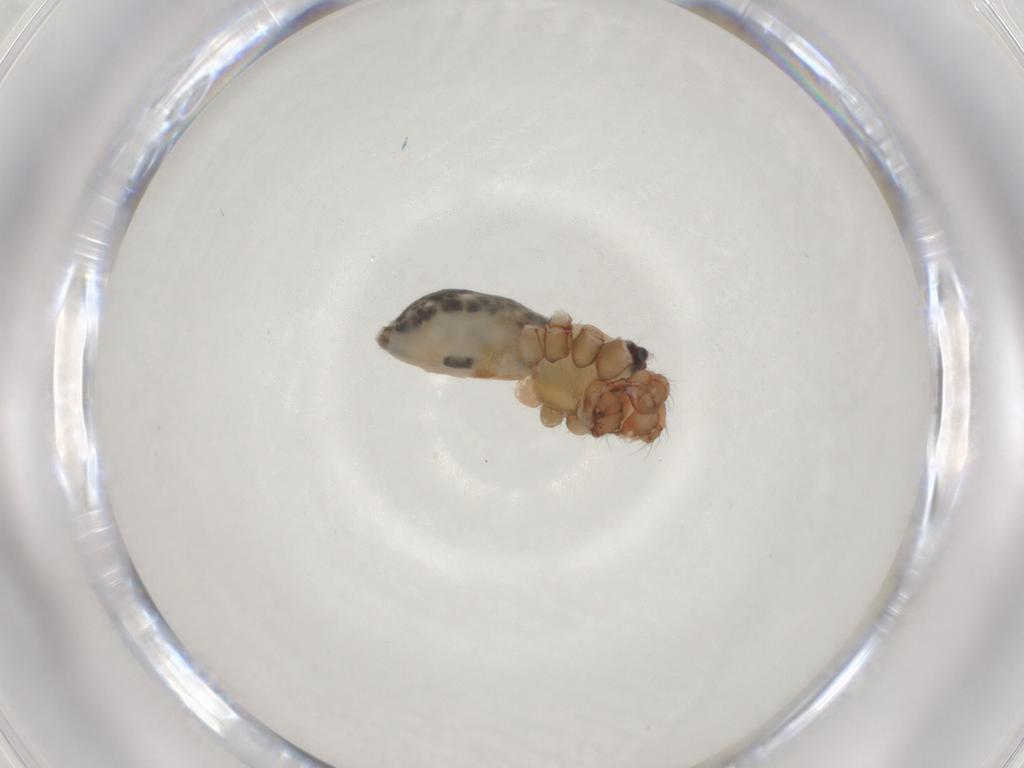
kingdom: Animalia
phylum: Arthropoda
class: Arachnida
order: Araneae
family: Pholcidae
